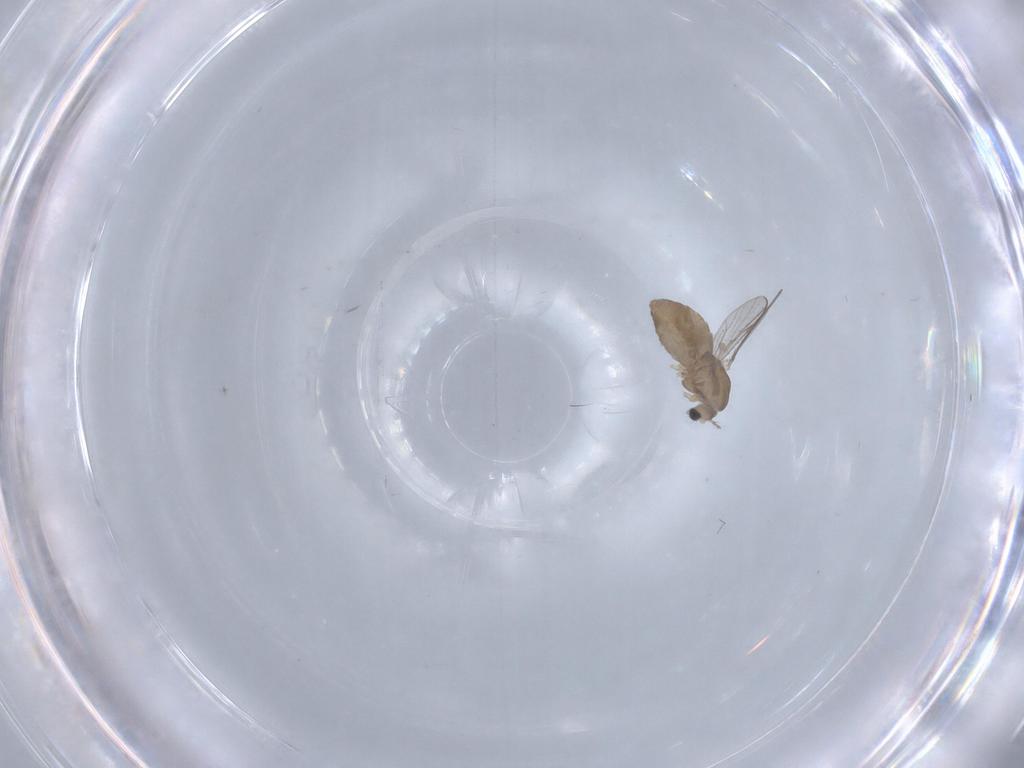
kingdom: Animalia
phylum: Arthropoda
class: Insecta
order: Diptera
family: Chironomidae
